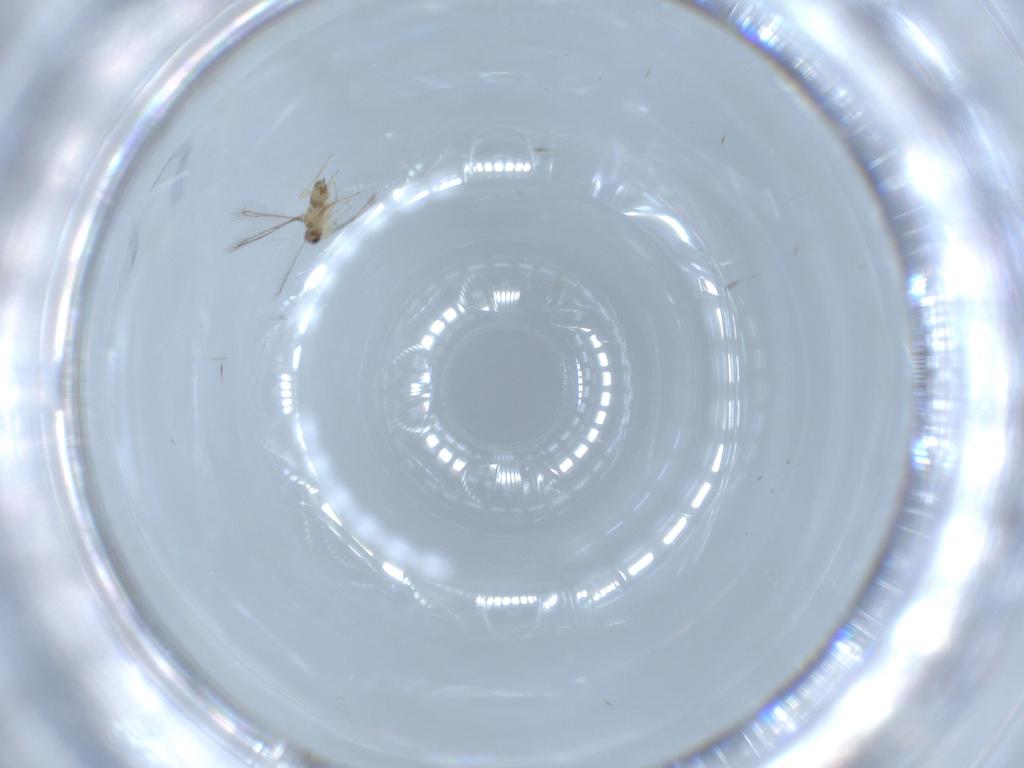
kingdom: Animalia
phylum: Arthropoda
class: Insecta
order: Hymenoptera
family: Mymaridae
